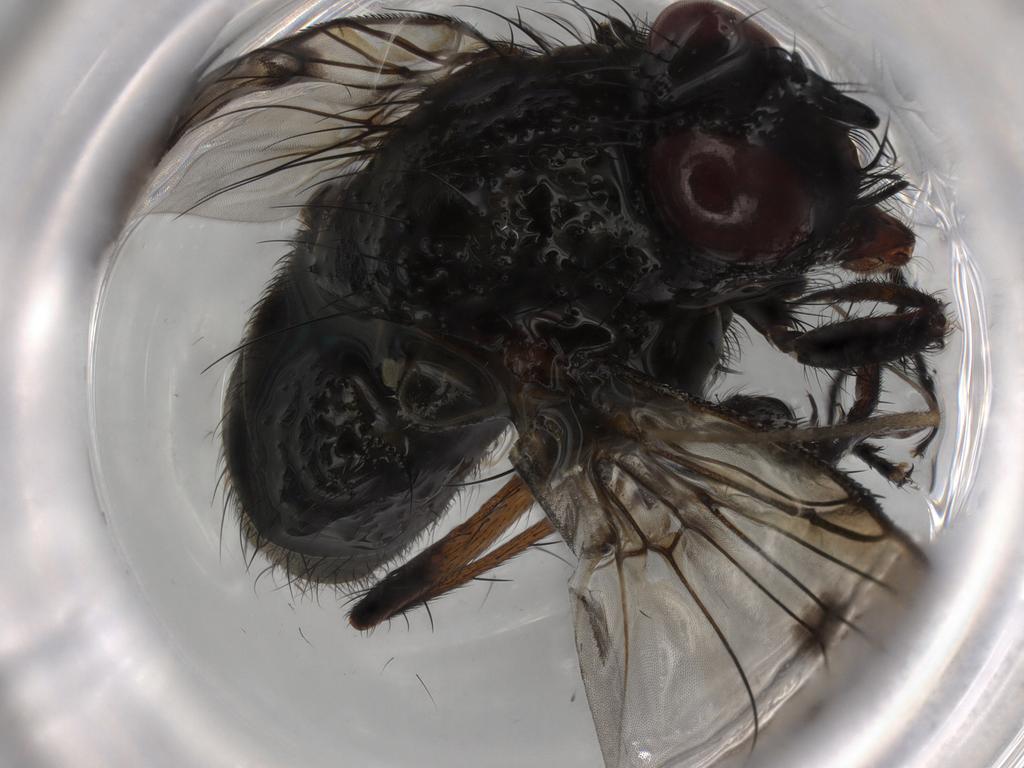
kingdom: Animalia
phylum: Arthropoda
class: Insecta
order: Diptera
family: Muscidae
